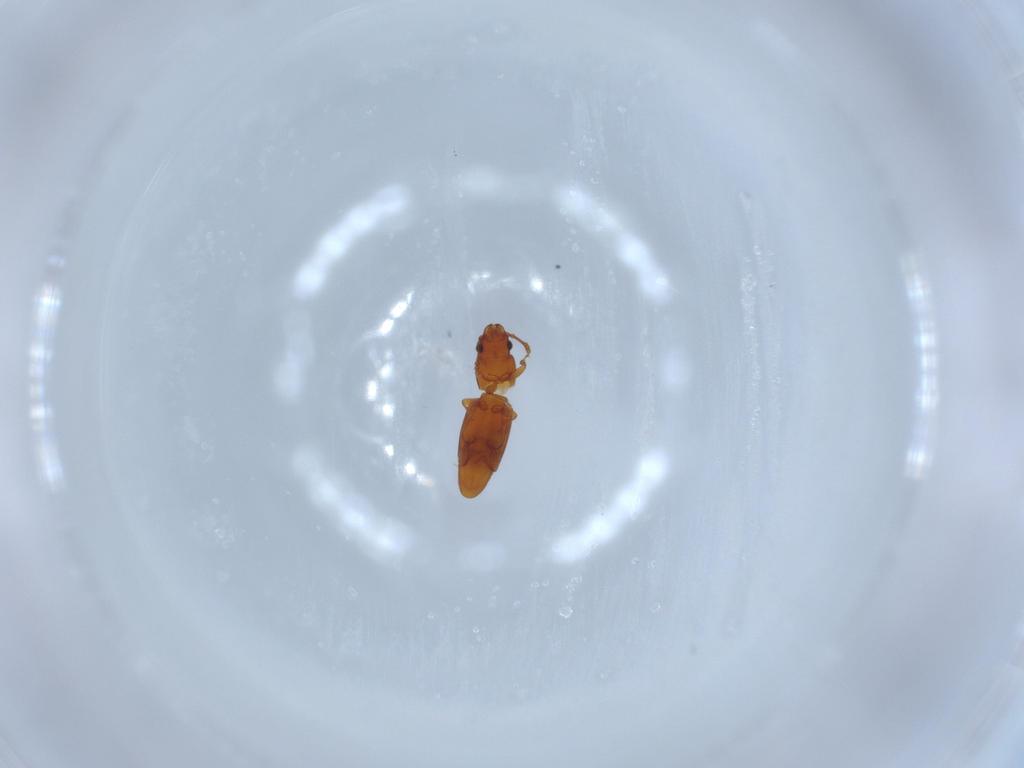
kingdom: Animalia
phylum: Arthropoda
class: Insecta
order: Coleoptera
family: Smicripidae
